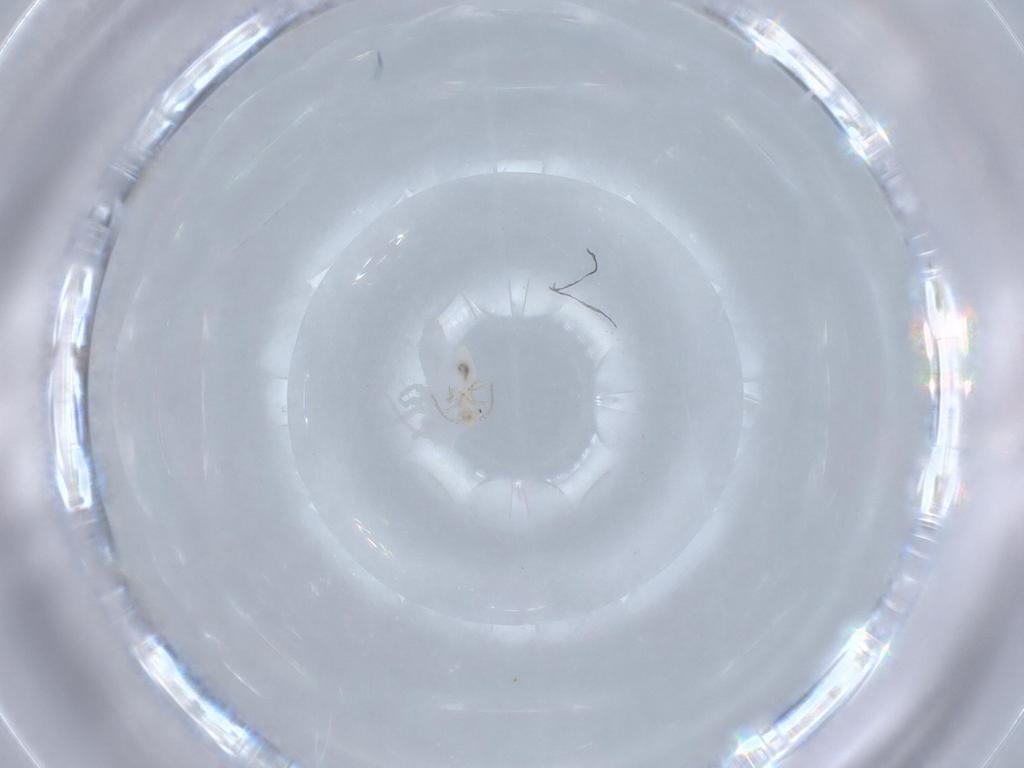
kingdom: Animalia
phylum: Arthropoda
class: Insecta
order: Psocodea
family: Caeciliusidae
